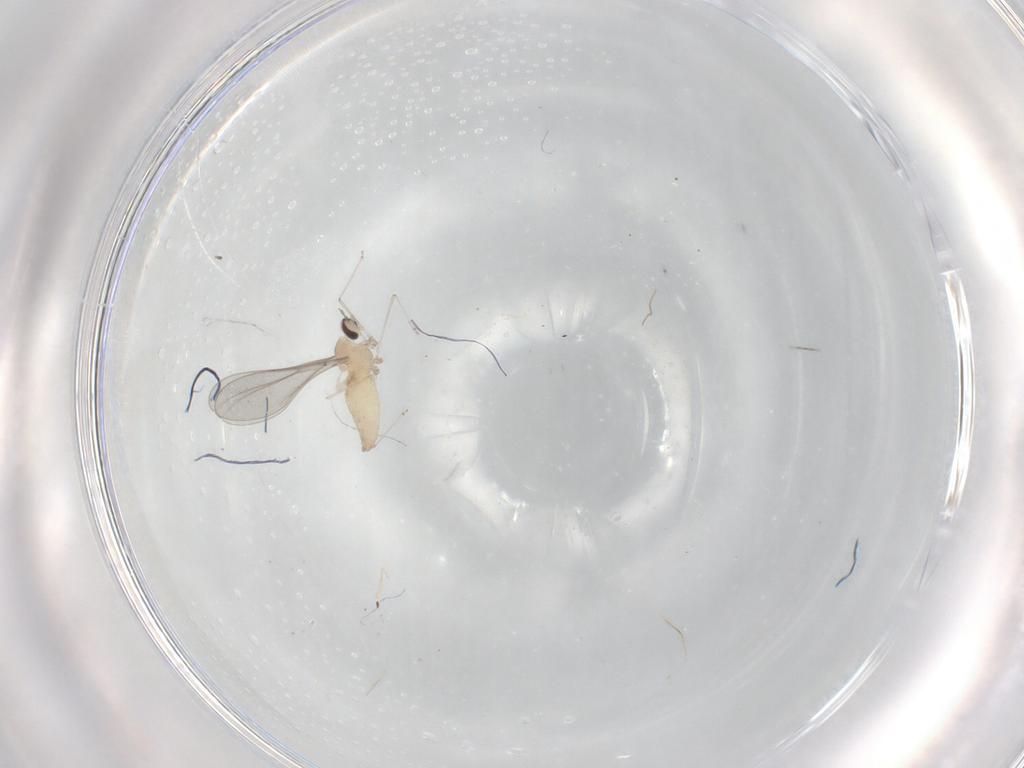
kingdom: Animalia
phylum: Arthropoda
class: Insecta
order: Diptera
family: Cecidomyiidae
